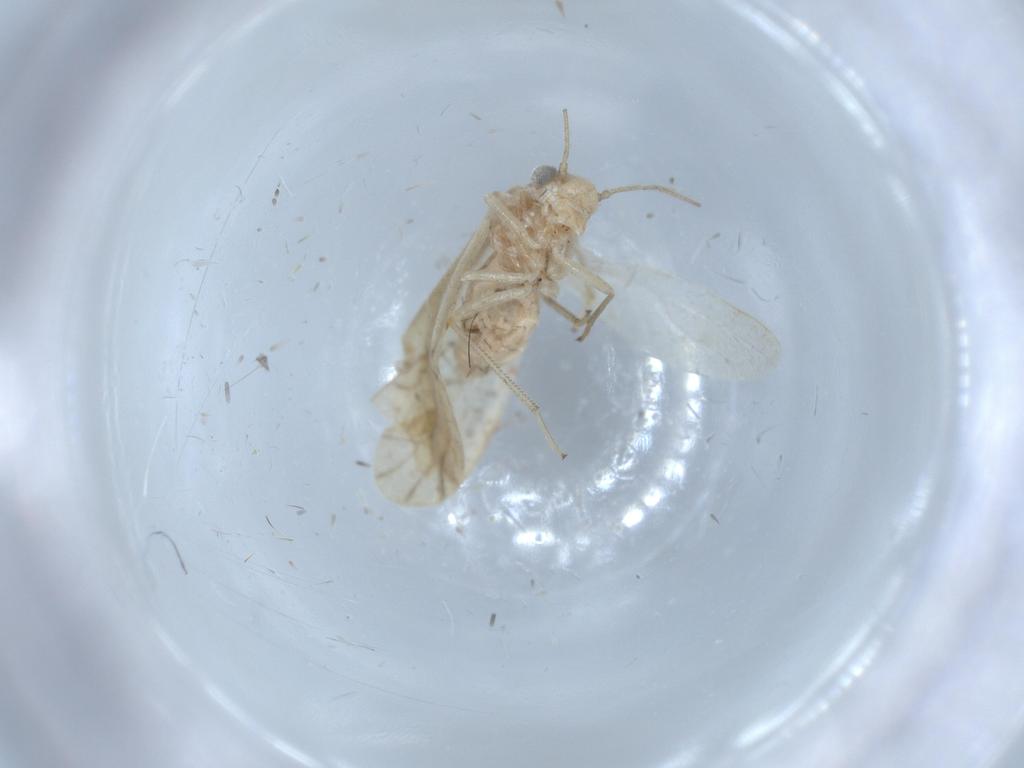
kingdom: Animalia
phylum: Arthropoda
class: Insecta
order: Psocodea
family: Caeciliusidae
